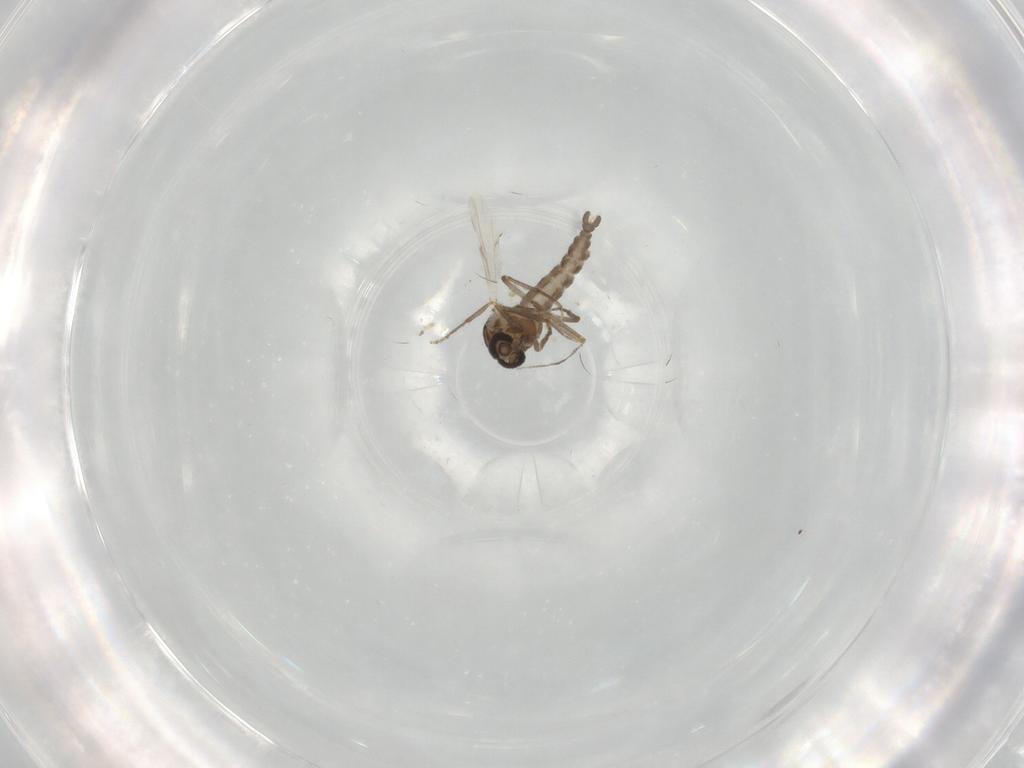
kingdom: Animalia
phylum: Arthropoda
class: Insecta
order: Diptera
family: Ceratopogonidae
